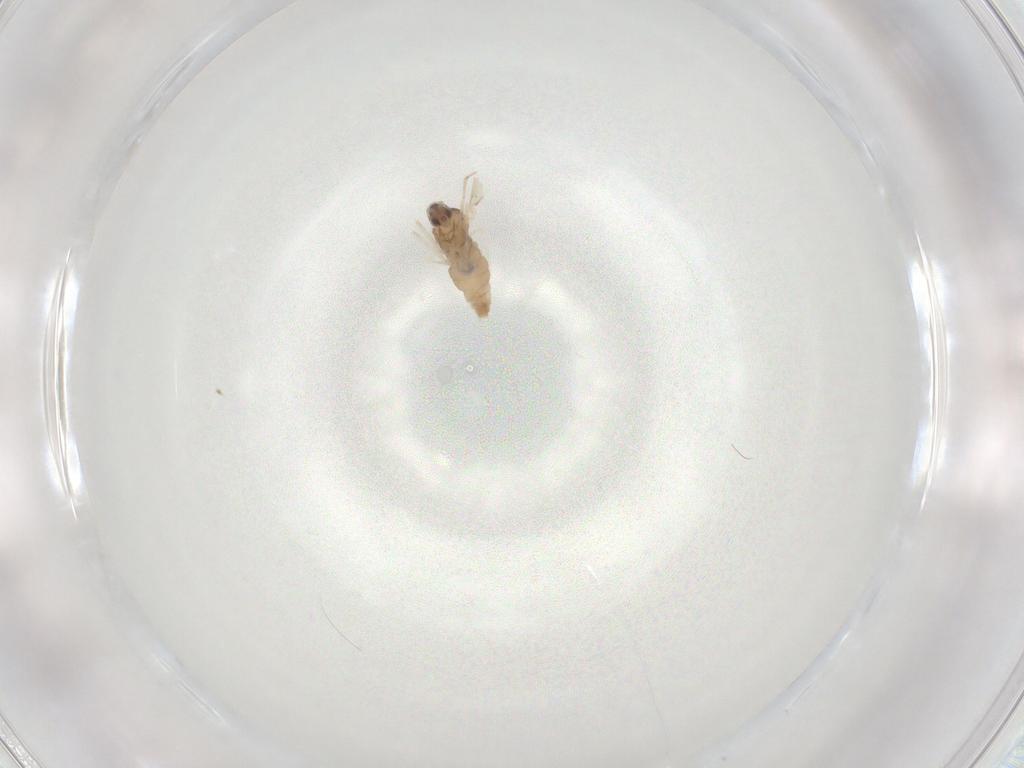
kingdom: Animalia
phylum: Arthropoda
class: Insecta
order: Diptera
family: Cecidomyiidae
